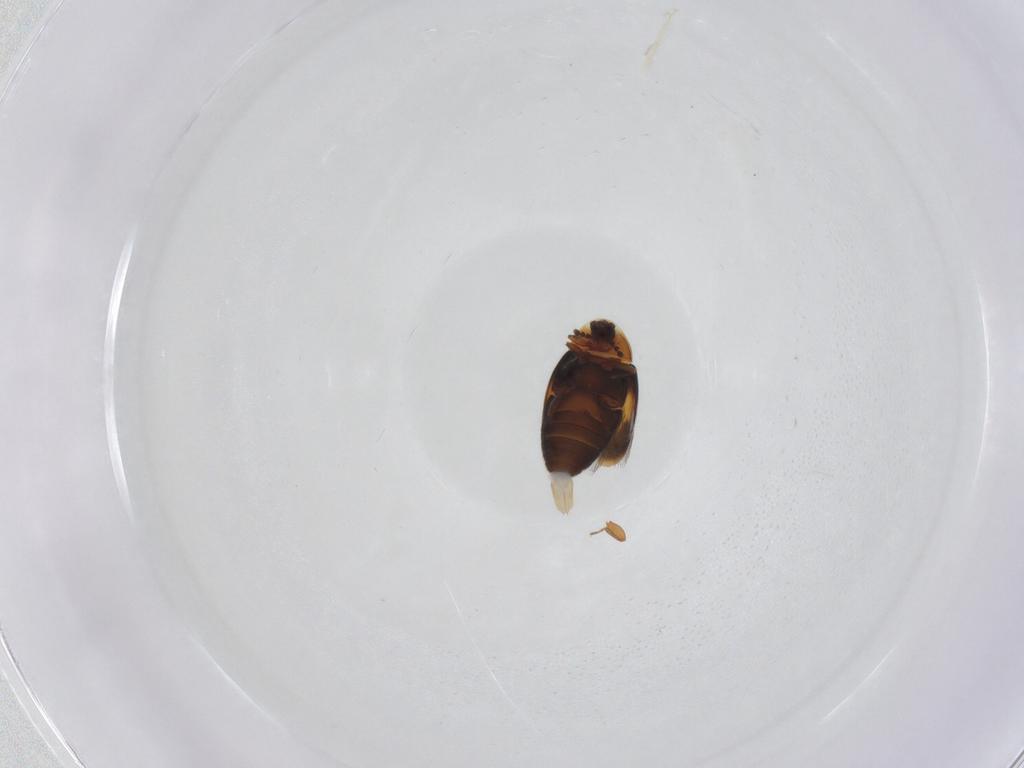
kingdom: Animalia
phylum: Arthropoda
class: Insecta
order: Coleoptera
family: Corylophidae
